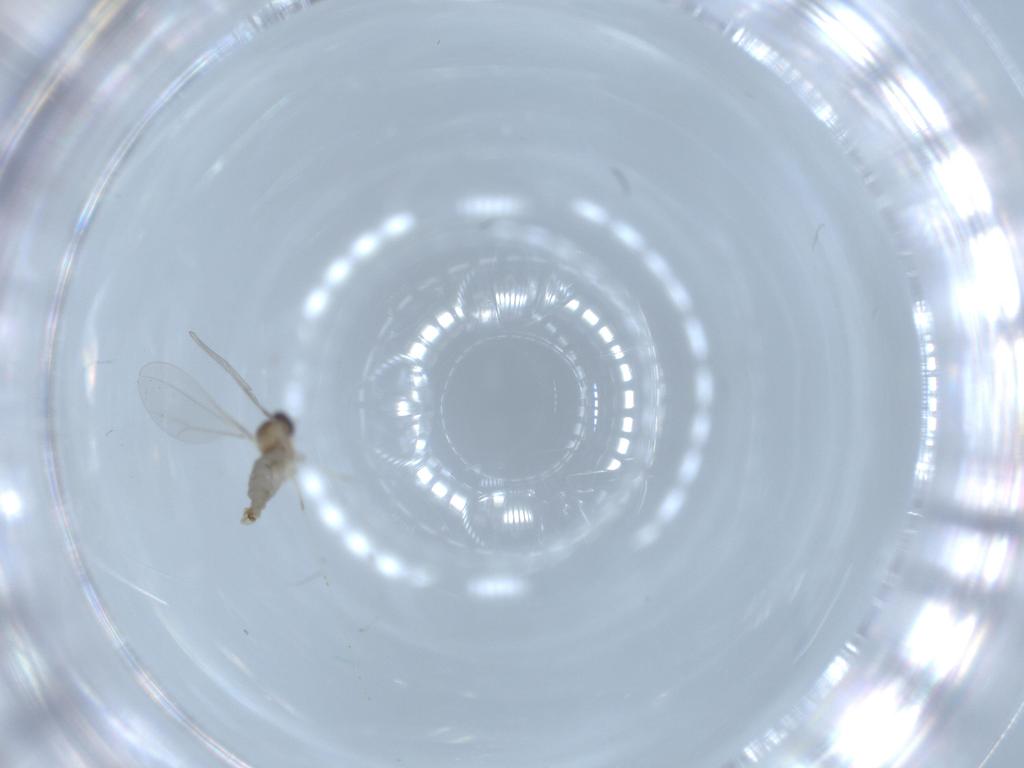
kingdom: Animalia
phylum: Arthropoda
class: Insecta
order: Diptera
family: Cecidomyiidae
